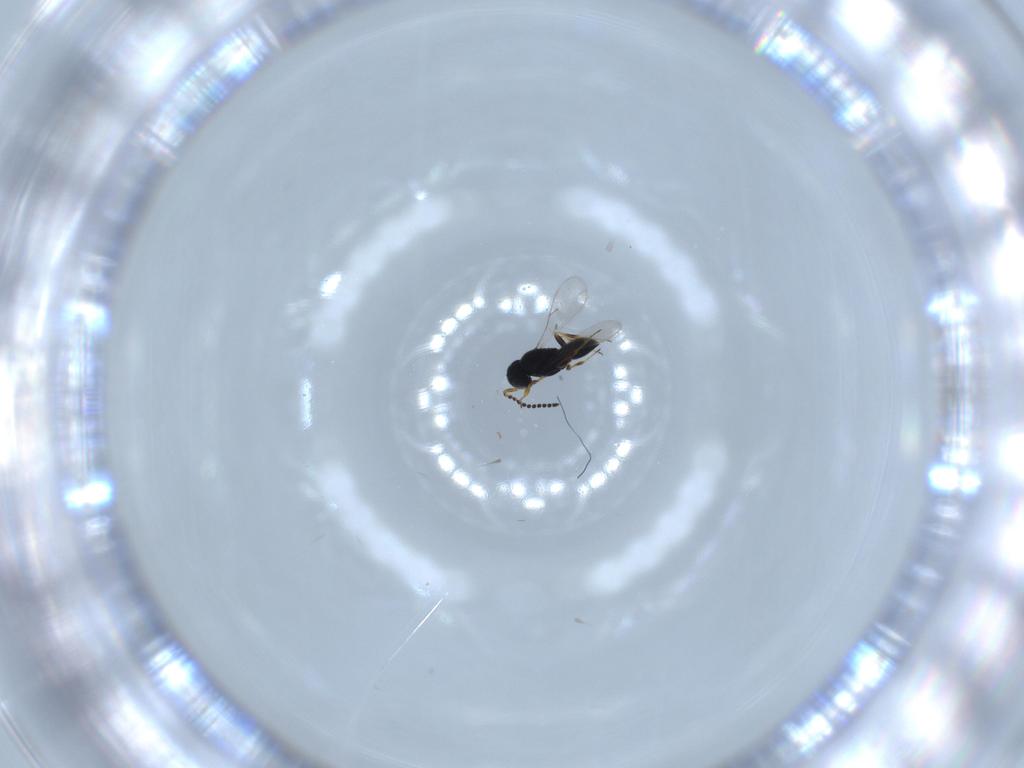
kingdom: Animalia
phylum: Arthropoda
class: Insecta
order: Hymenoptera
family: Scelionidae
